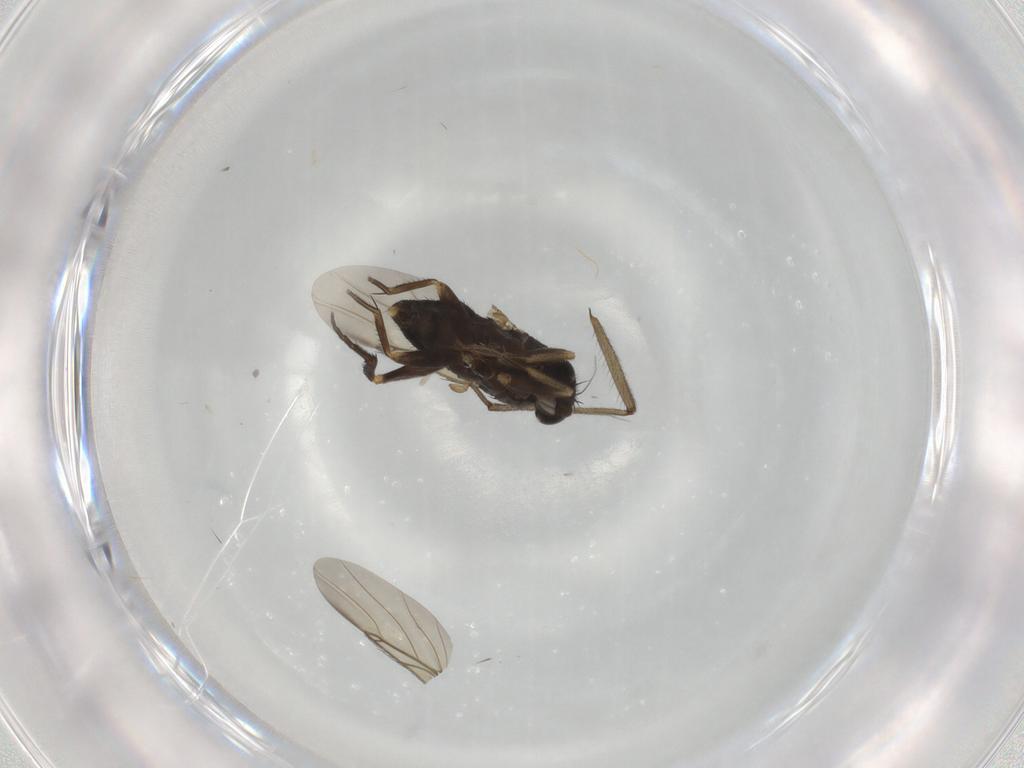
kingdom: Animalia
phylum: Arthropoda
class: Insecta
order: Diptera
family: Phoridae
